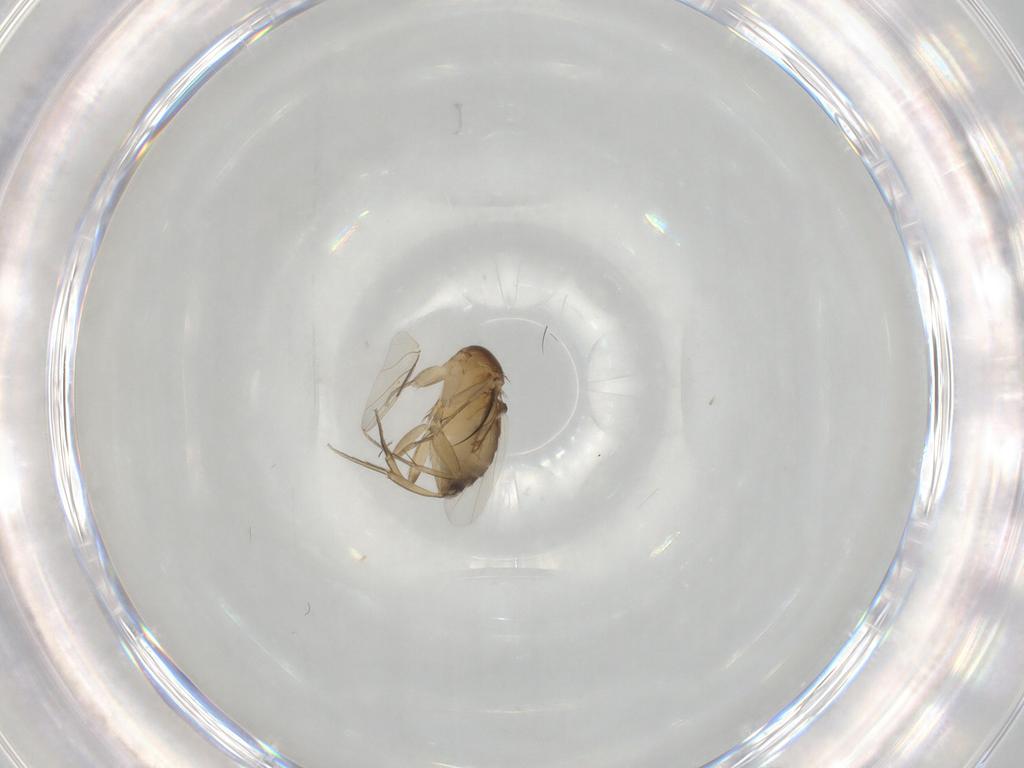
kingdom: Animalia
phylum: Arthropoda
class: Insecta
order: Diptera
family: Phoridae
